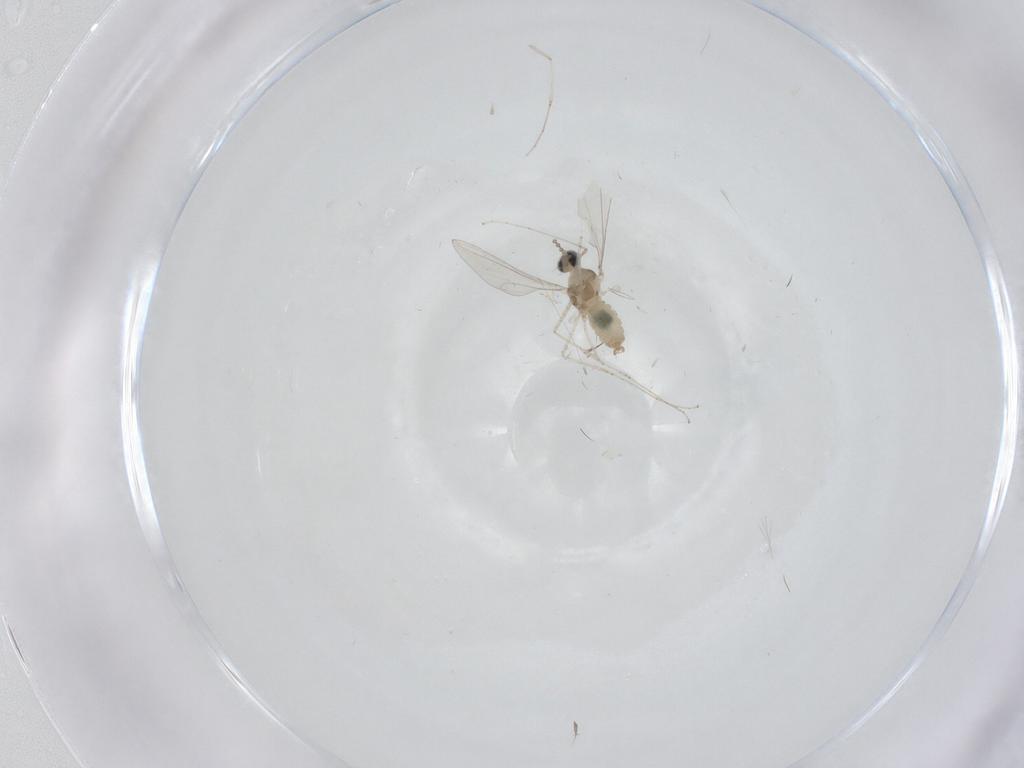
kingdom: Animalia
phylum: Arthropoda
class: Insecta
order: Diptera
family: Cecidomyiidae
